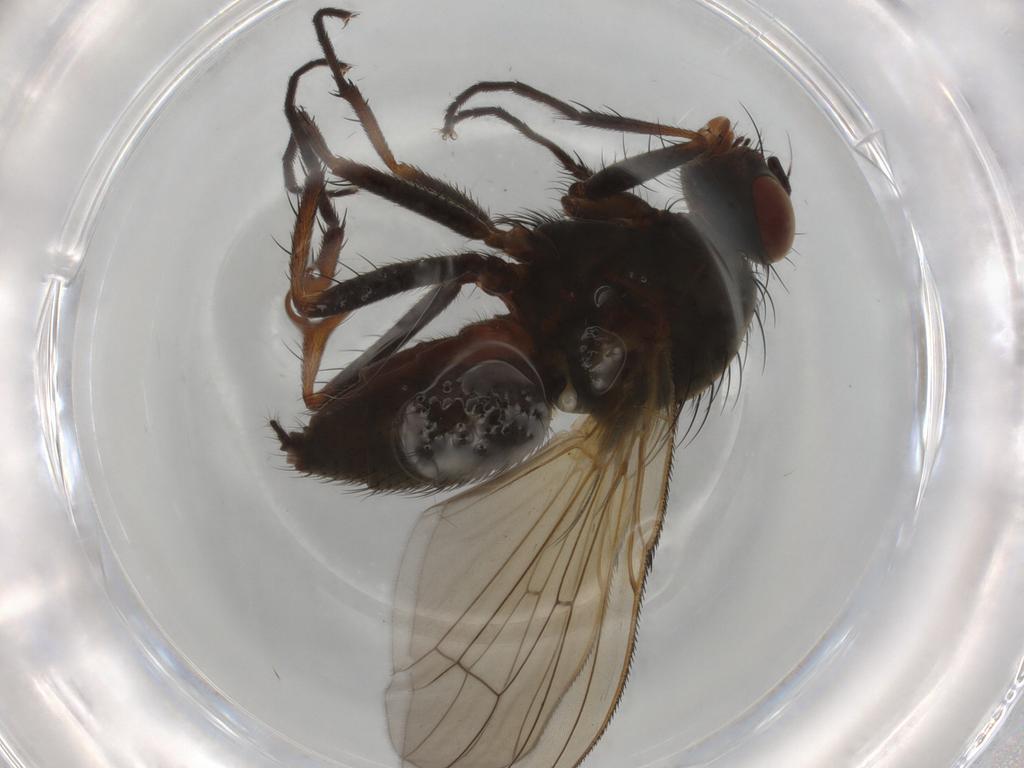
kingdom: Animalia
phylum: Arthropoda
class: Insecta
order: Diptera
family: Anthomyiidae
